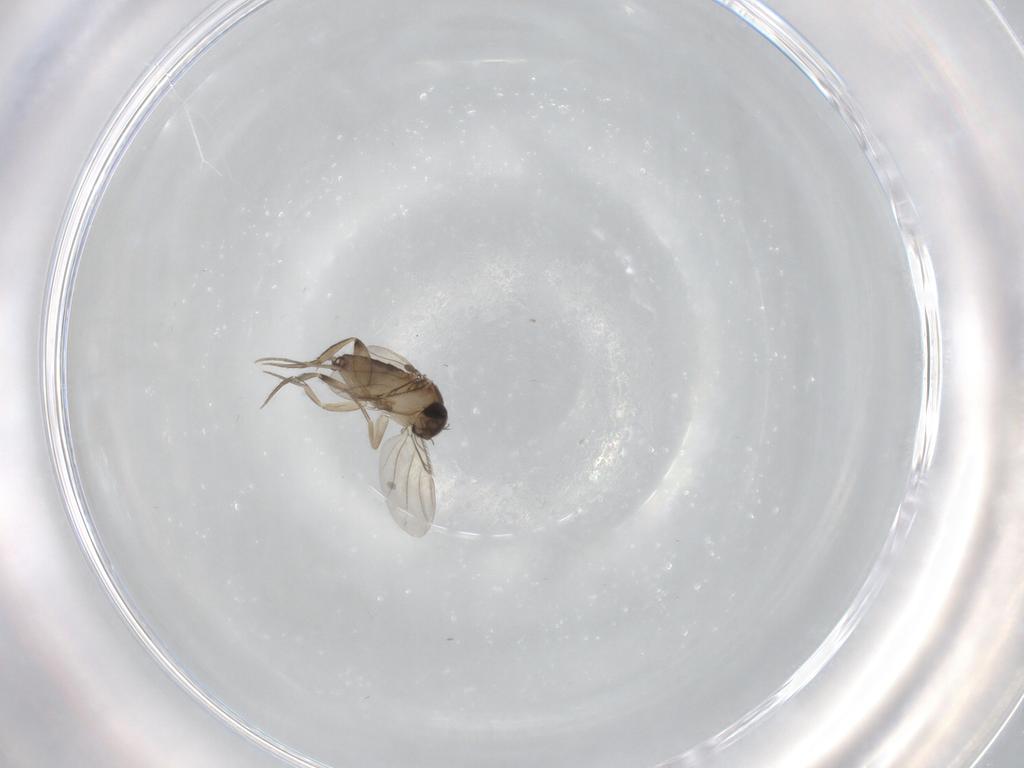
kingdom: Animalia
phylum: Arthropoda
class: Insecta
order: Diptera
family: Phoridae
